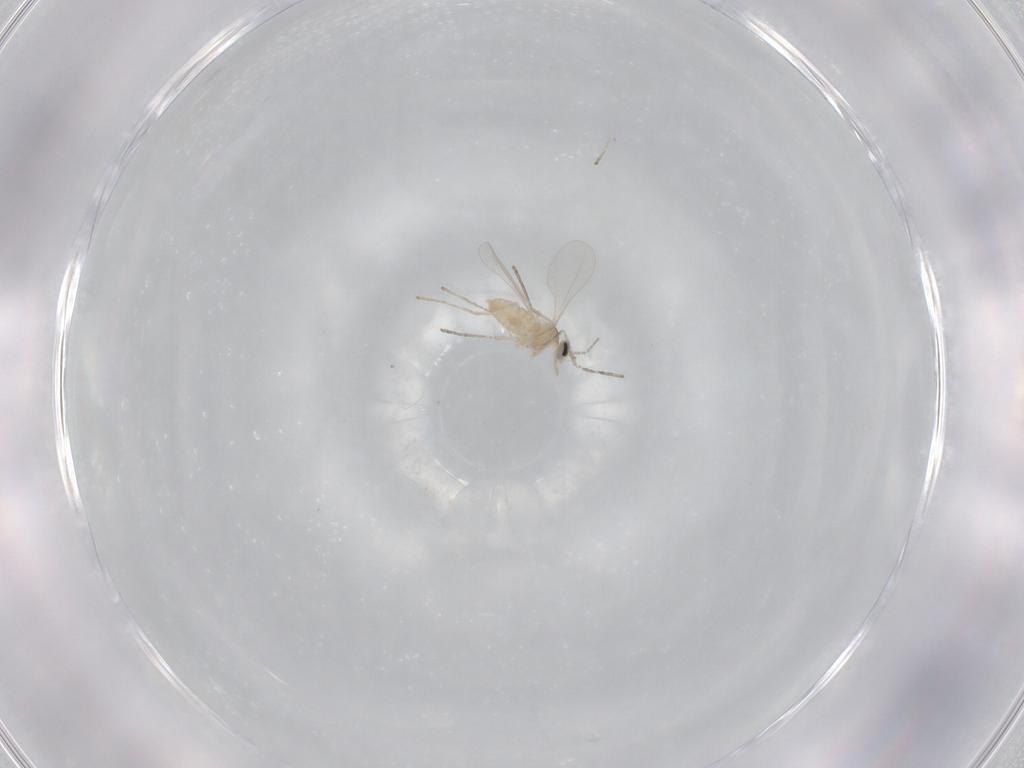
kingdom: Animalia
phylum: Arthropoda
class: Insecta
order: Diptera
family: Cecidomyiidae
